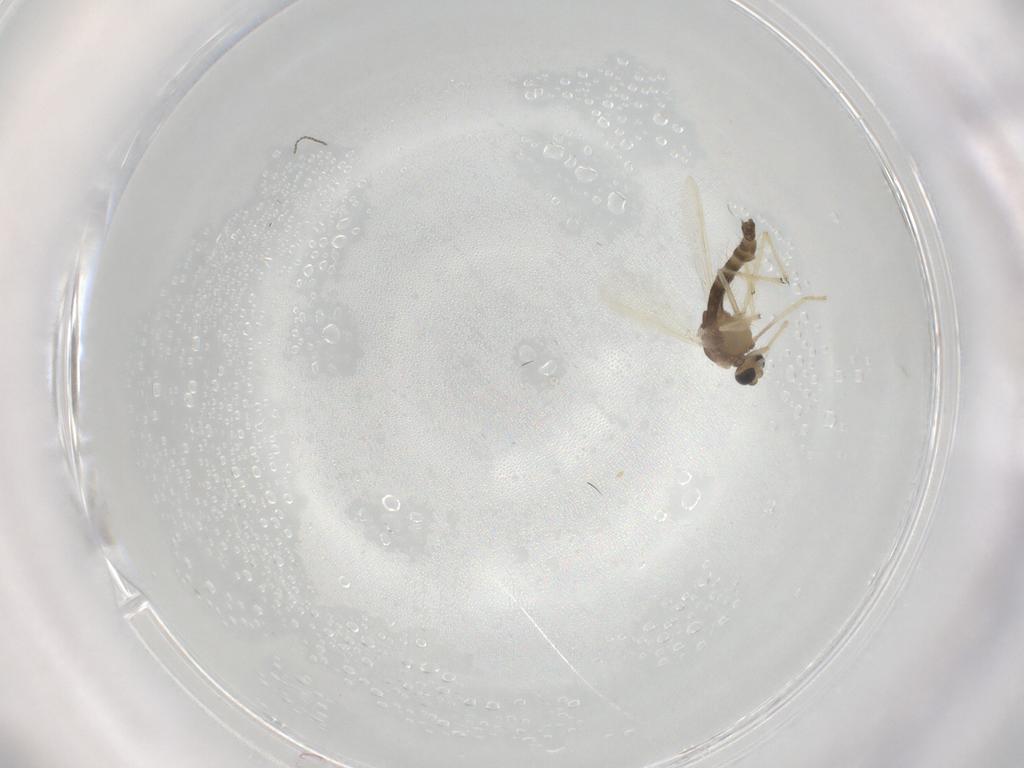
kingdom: Animalia
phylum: Arthropoda
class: Insecta
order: Diptera
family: Chironomidae
